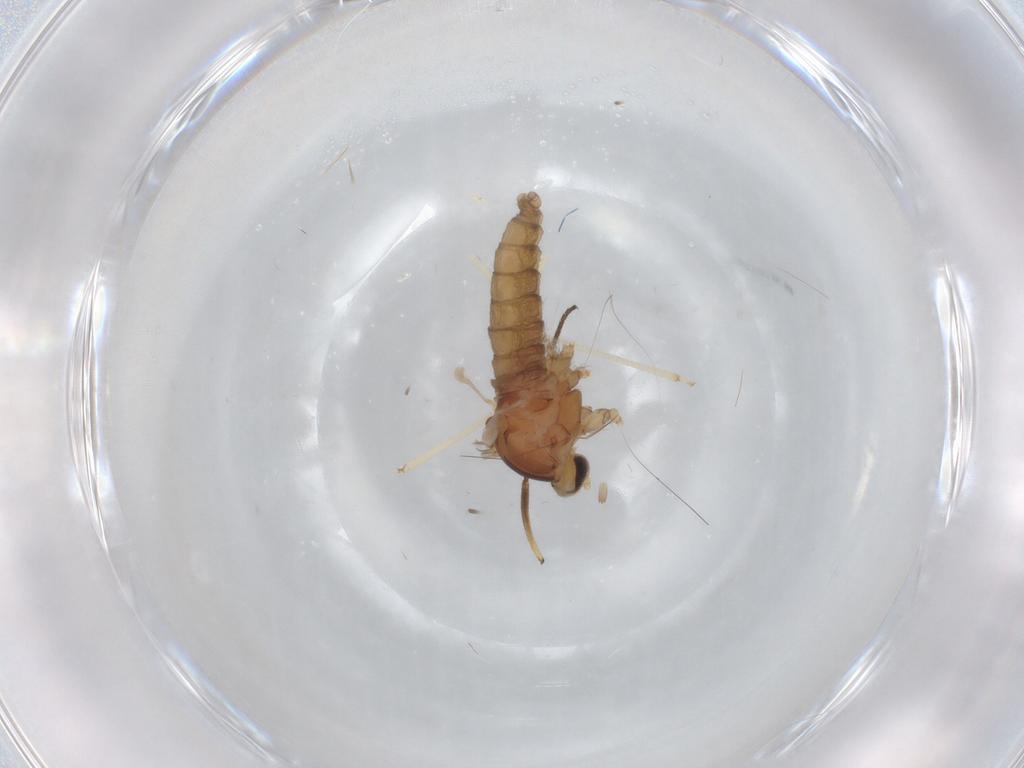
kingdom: Animalia
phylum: Arthropoda
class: Insecta
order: Diptera
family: Cecidomyiidae
